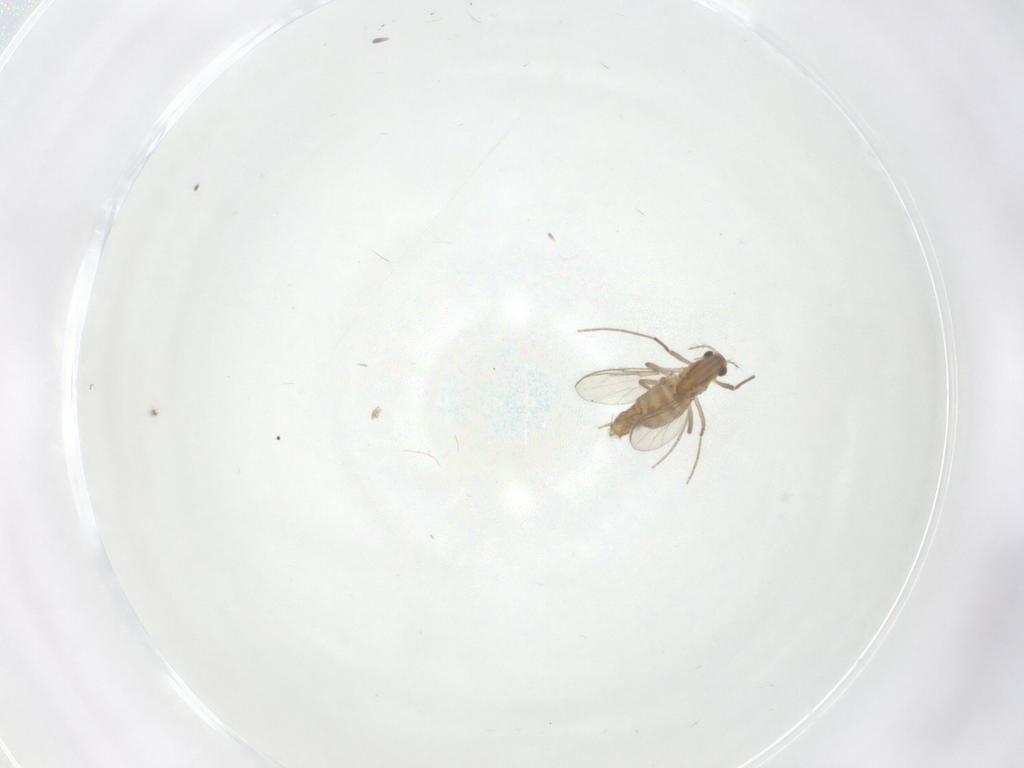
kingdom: Animalia
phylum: Arthropoda
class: Insecta
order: Diptera
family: Chironomidae
